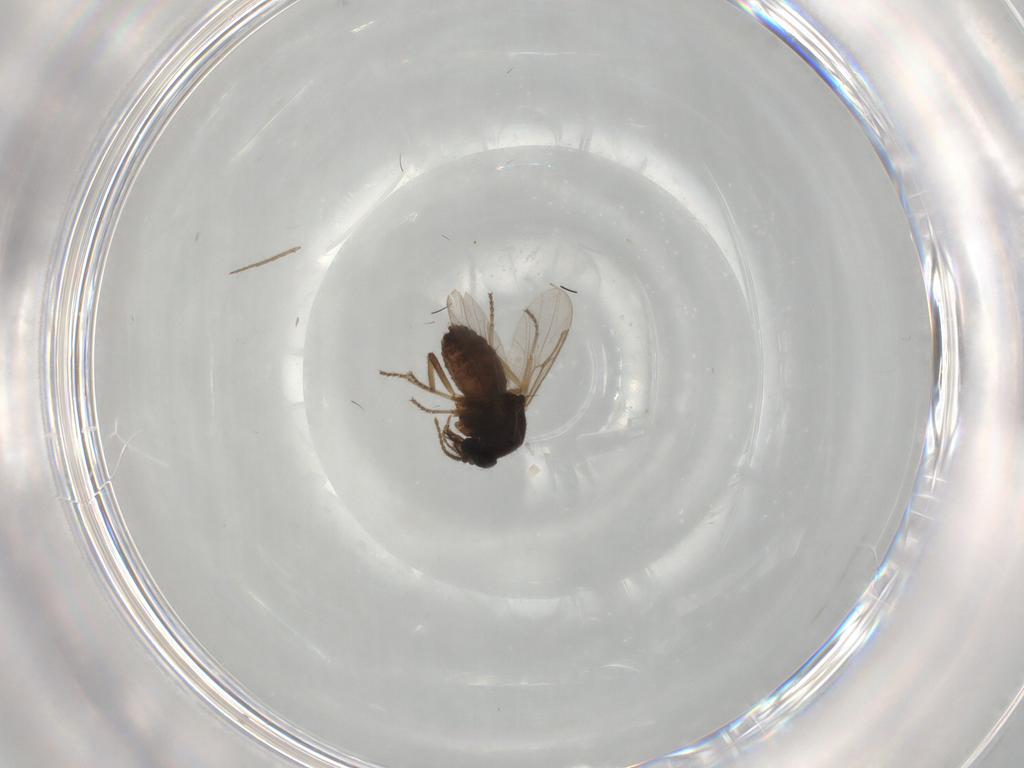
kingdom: Animalia
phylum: Arthropoda
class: Insecta
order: Diptera
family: Ceratopogonidae
